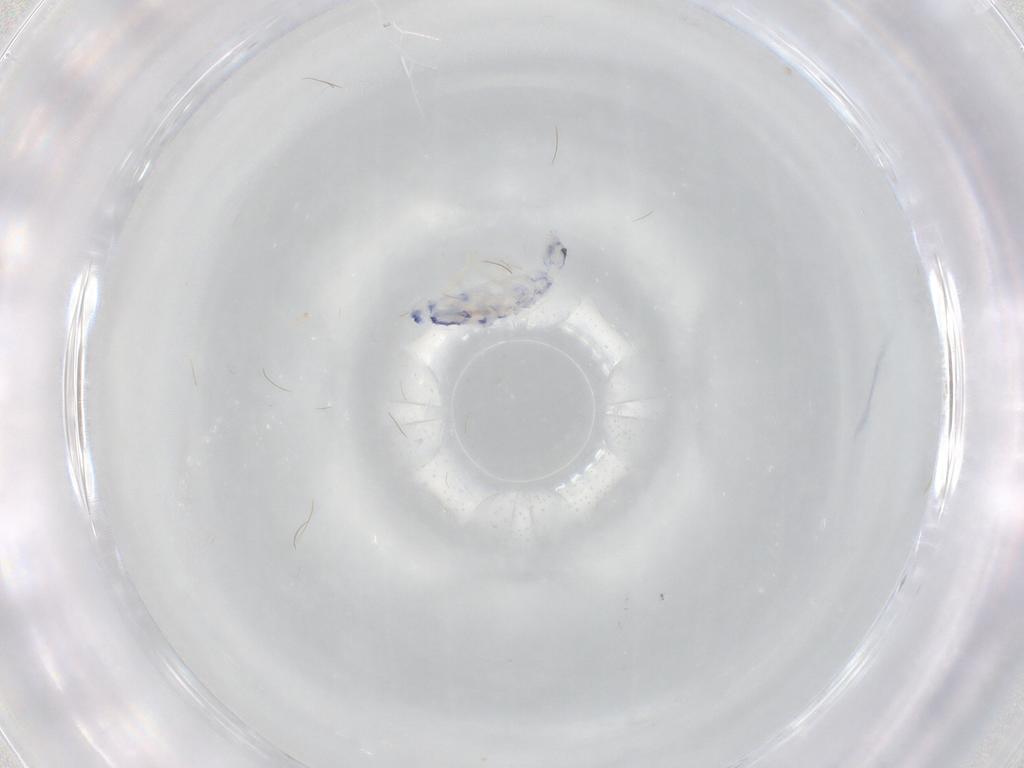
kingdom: Animalia
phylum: Arthropoda
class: Collembola
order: Entomobryomorpha
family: Entomobryidae
